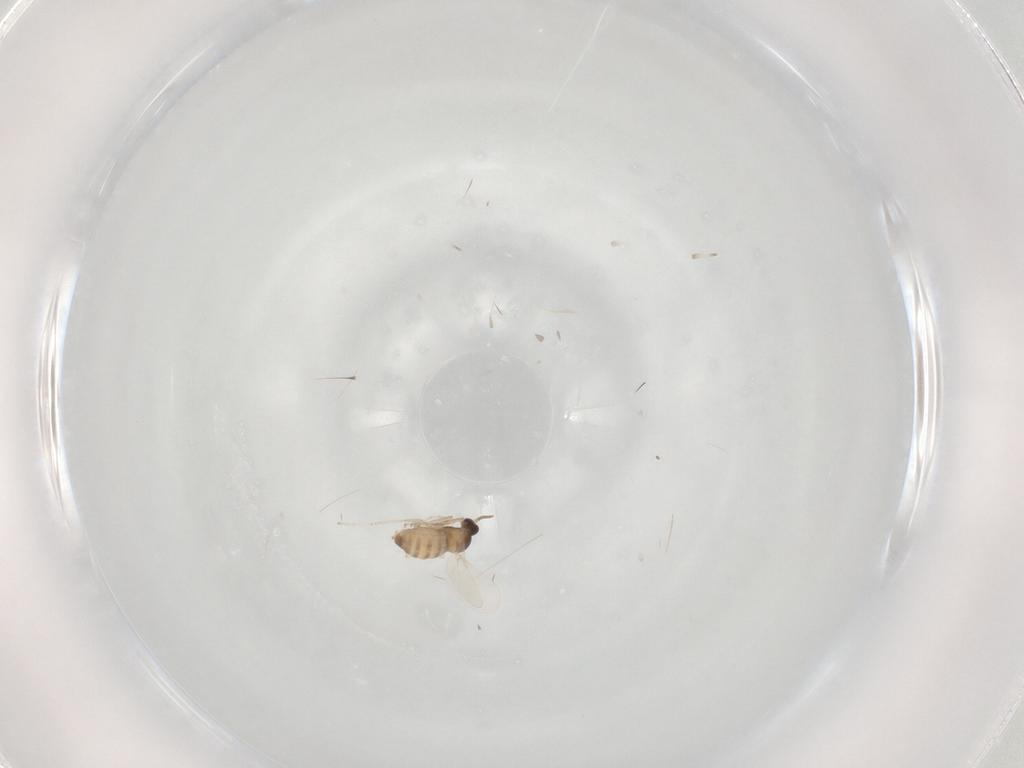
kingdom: Animalia
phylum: Arthropoda
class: Insecta
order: Diptera
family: Cecidomyiidae
